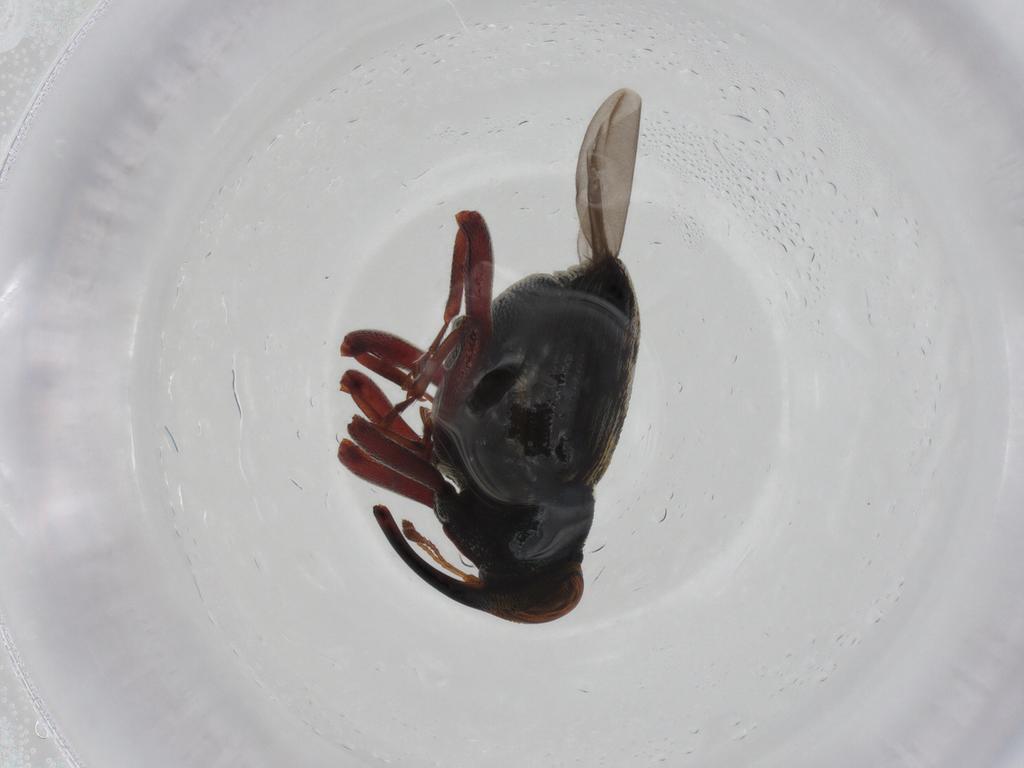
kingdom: Animalia
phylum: Arthropoda
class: Insecta
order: Coleoptera
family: Curculionidae
